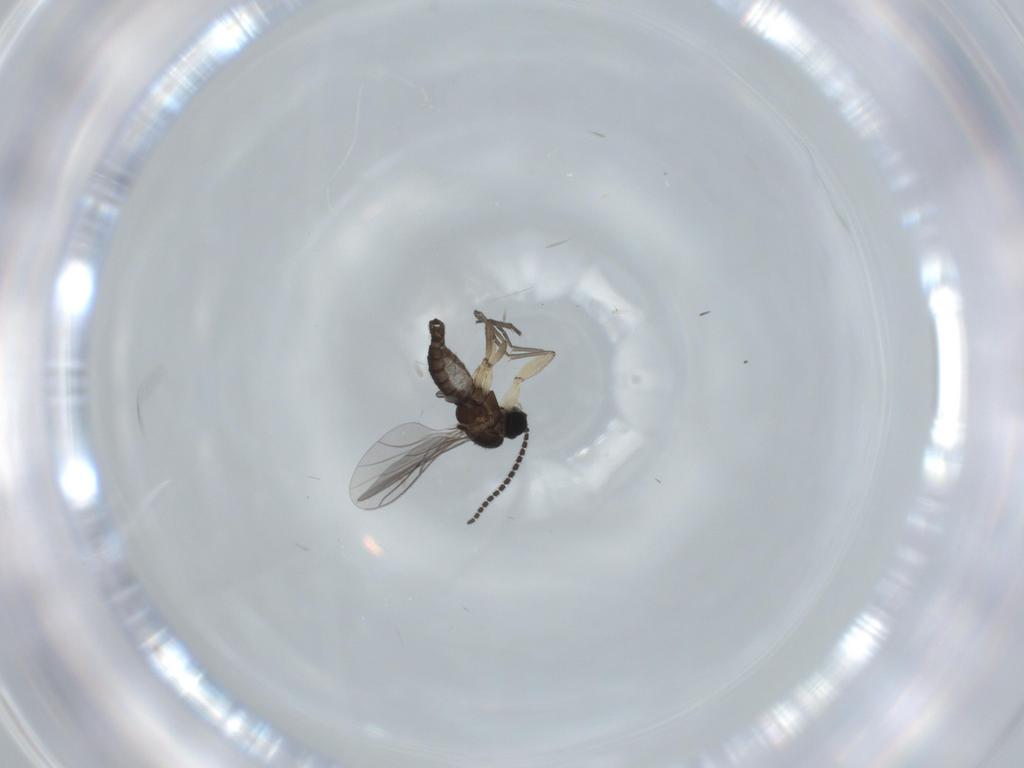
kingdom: Animalia
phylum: Arthropoda
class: Insecta
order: Diptera
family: Sciaridae
